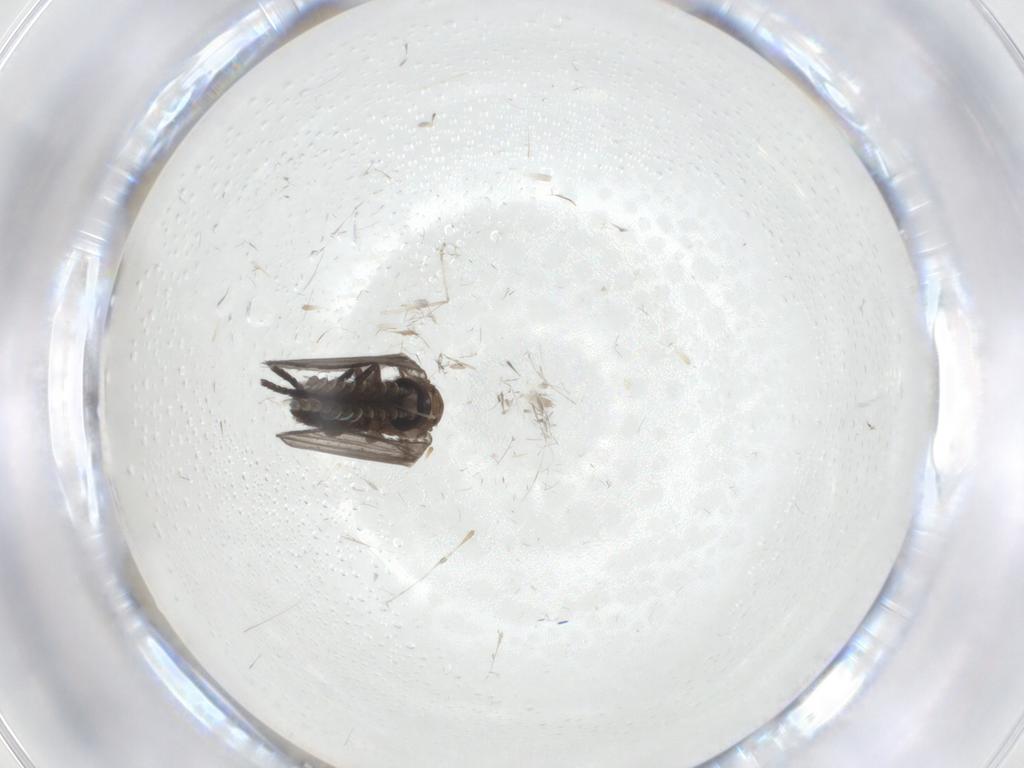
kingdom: Animalia
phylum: Arthropoda
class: Insecta
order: Diptera
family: Psychodidae
